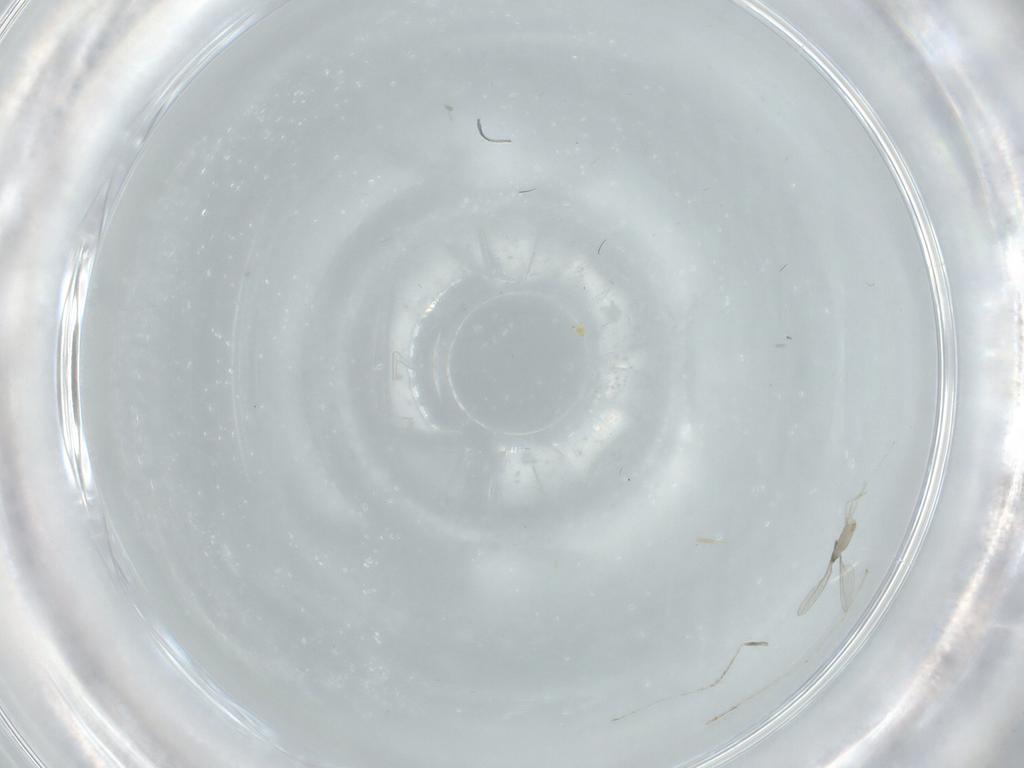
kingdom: Animalia
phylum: Arthropoda
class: Insecta
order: Diptera
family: Cecidomyiidae
